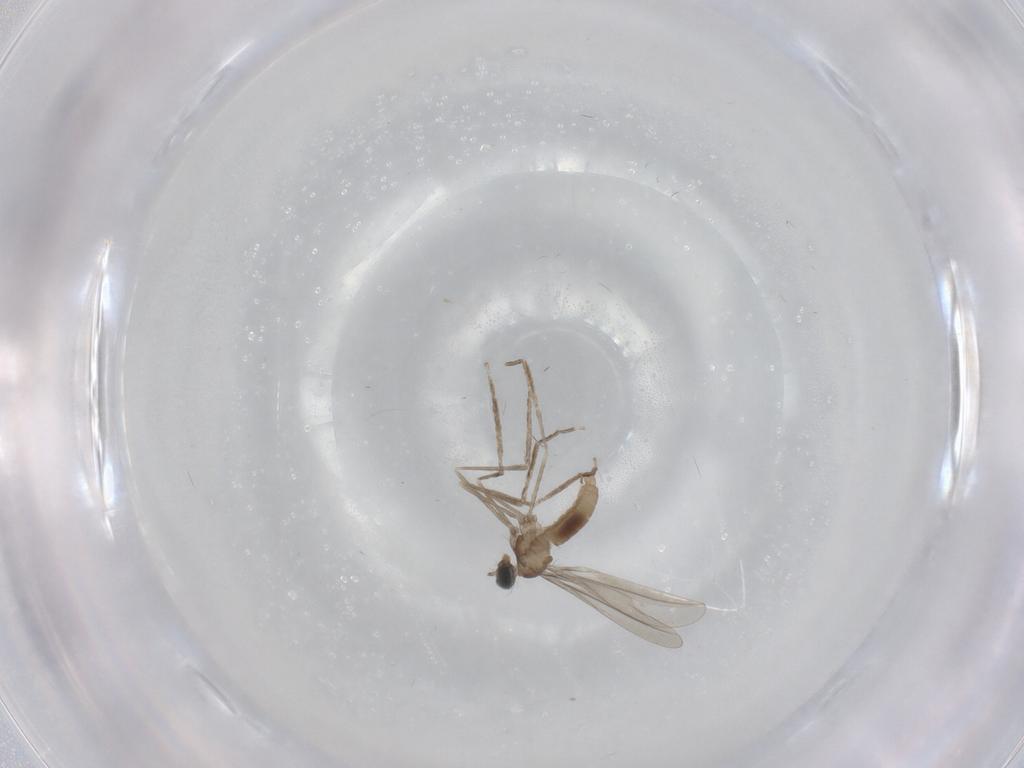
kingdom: Animalia
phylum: Arthropoda
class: Insecta
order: Diptera
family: Cecidomyiidae
